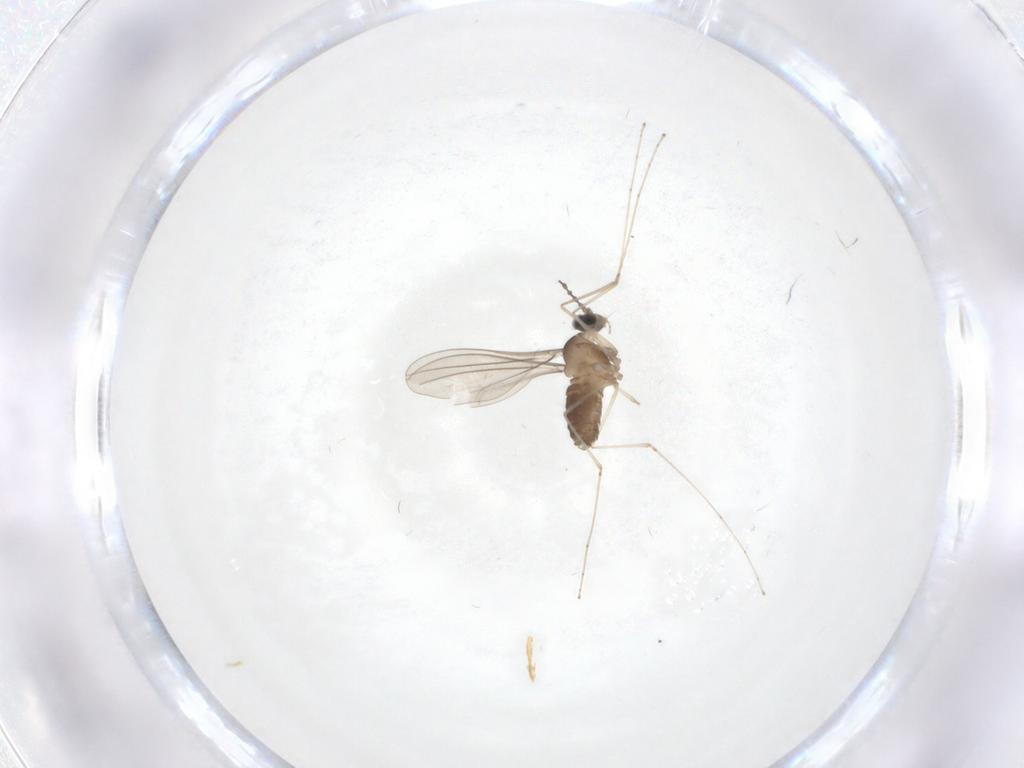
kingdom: Animalia
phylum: Arthropoda
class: Insecta
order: Diptera
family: Cecidomyiidae
